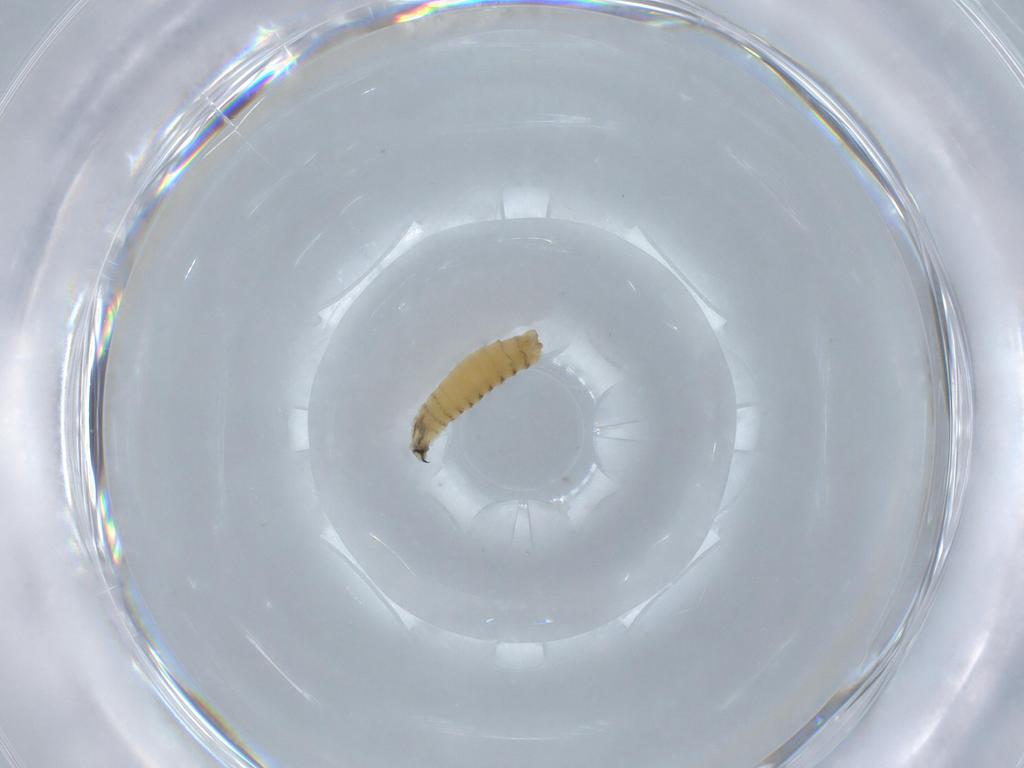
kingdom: Animalia
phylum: Arthropoda
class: Insecta
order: Diptera
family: Sarcophagidae
